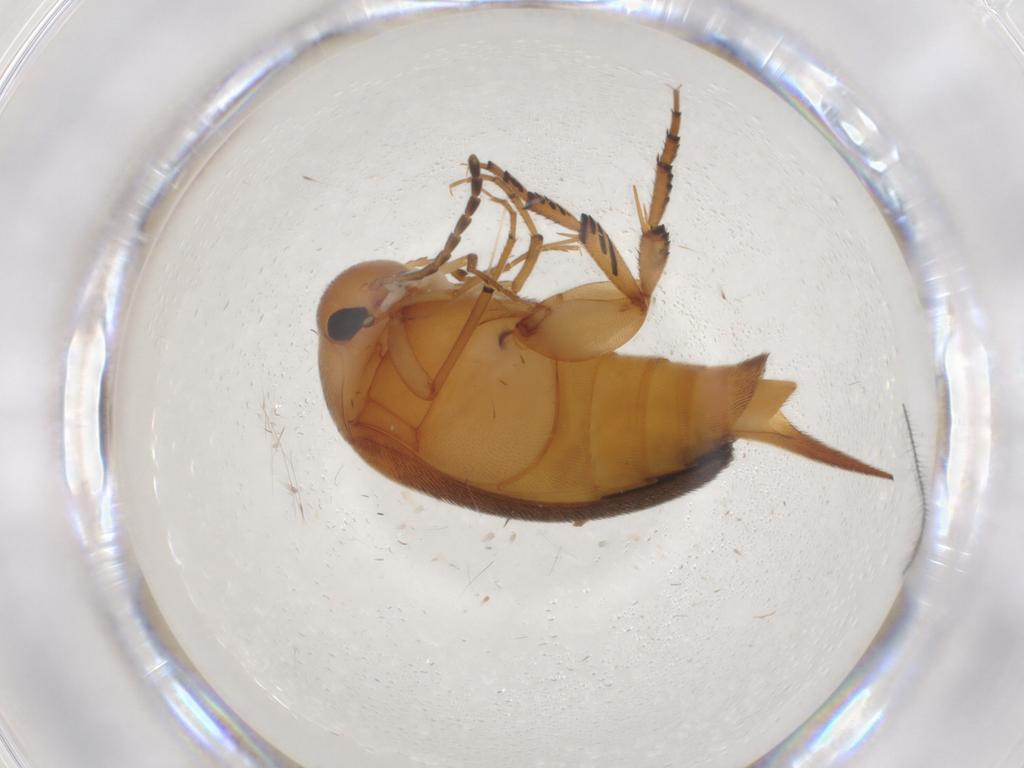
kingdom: Animalia
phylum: Arthropoda
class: Insecta
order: Coleoptera
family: Mordellidae
